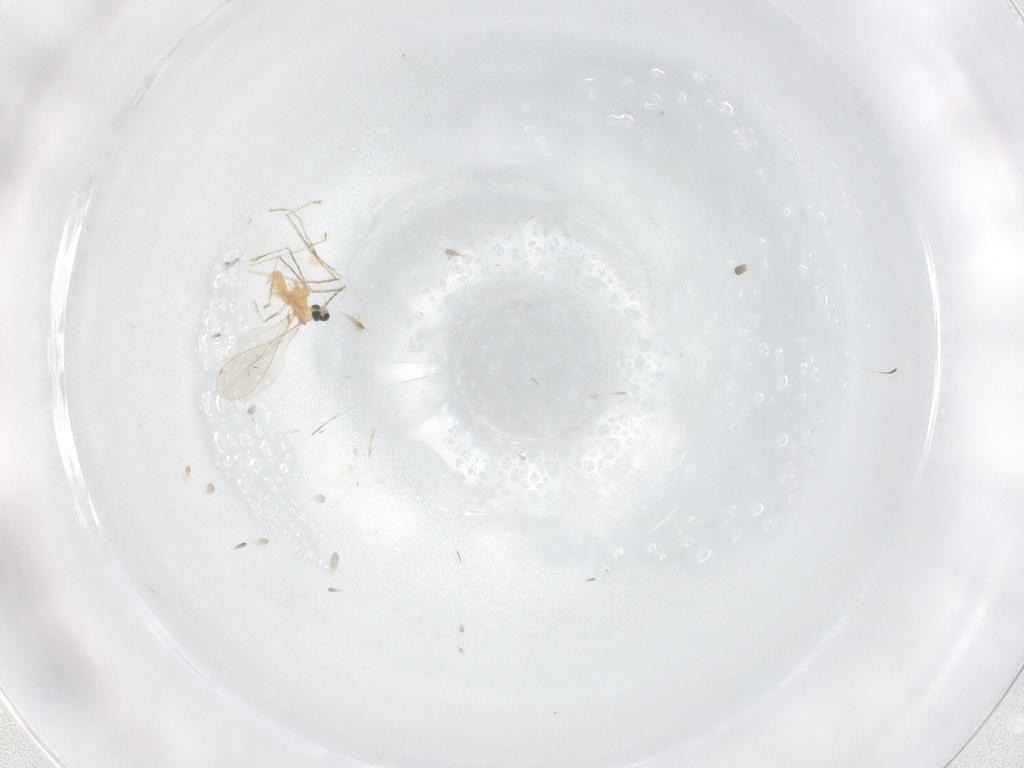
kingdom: Animalia
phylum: Arthropoda
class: Insecta
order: Diptera
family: Cecidomyiidae
